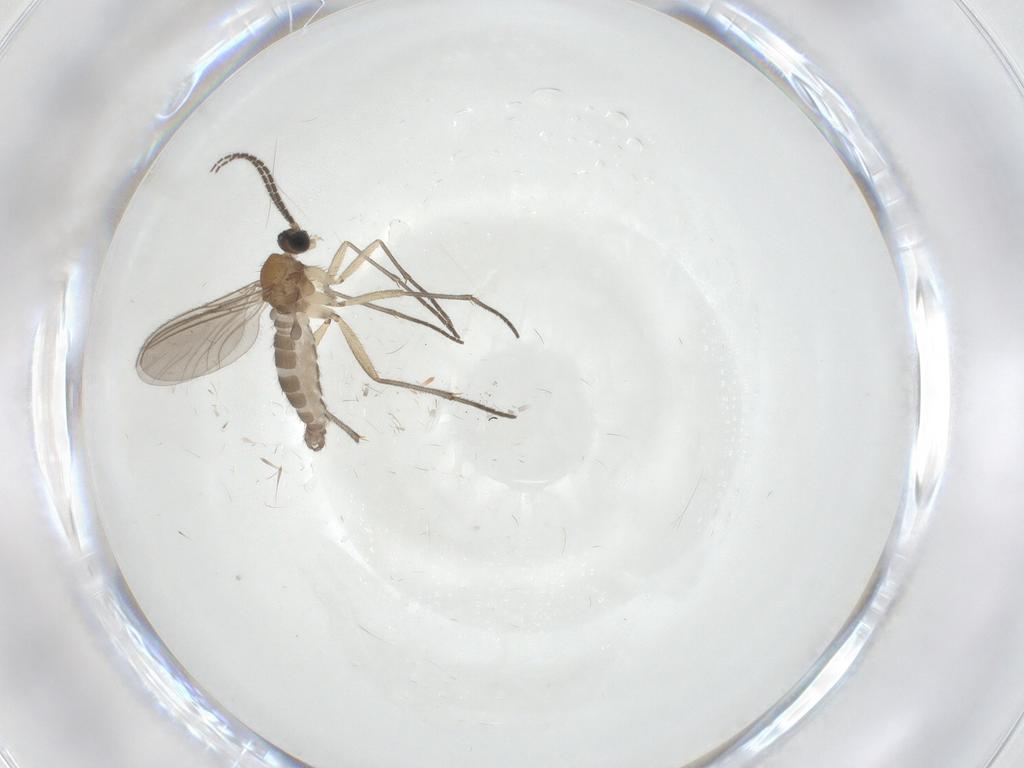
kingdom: Animalia
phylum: Arthropoda
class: Insecta
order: Diptera
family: Sciaridae
